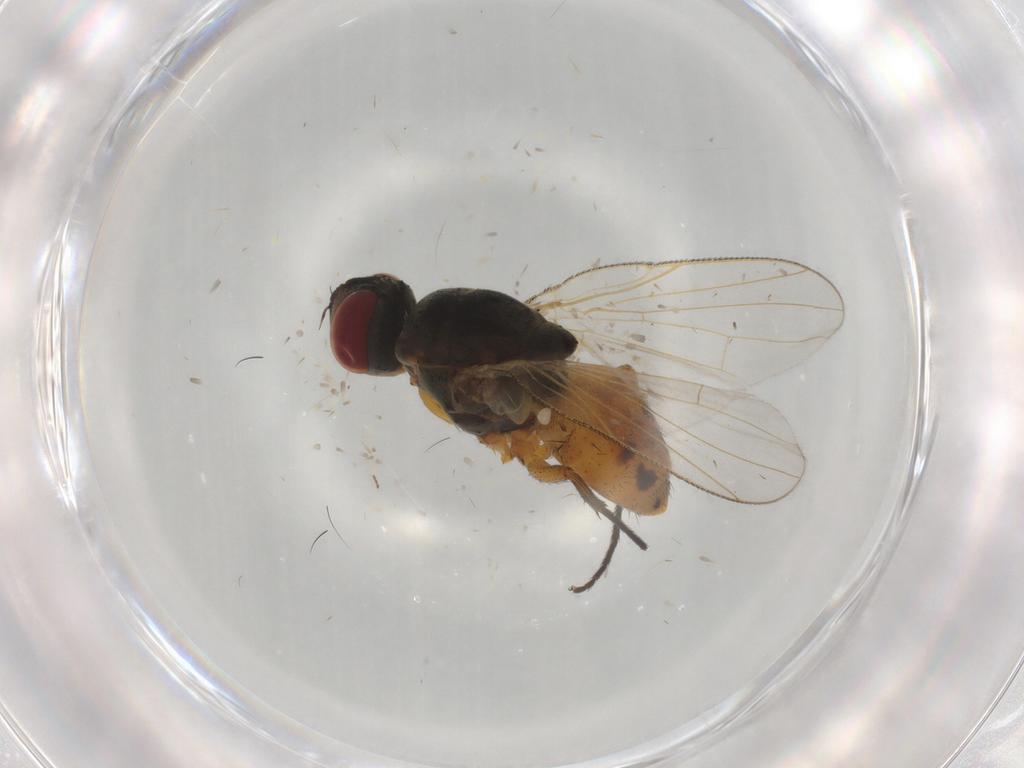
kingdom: Animalia
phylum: Arthropoda
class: Insecta
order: Diptera
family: Muscidae
